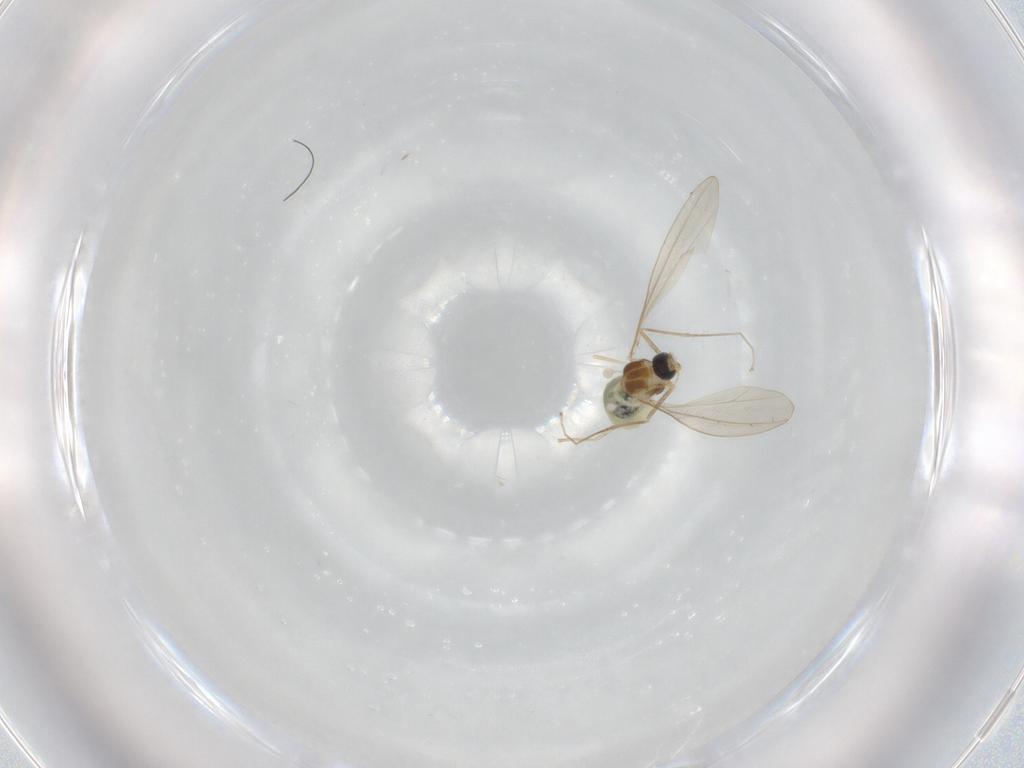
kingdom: Animalia
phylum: Arthropoda
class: Insecta
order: Diptera
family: Cecidomyiidae
